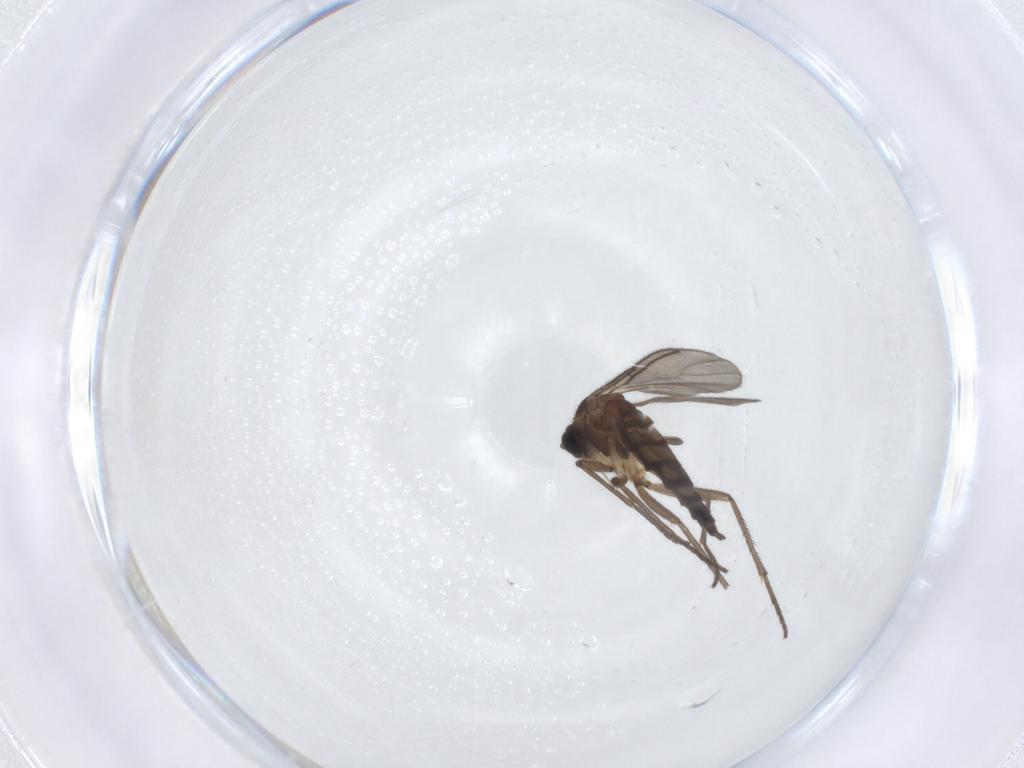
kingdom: Animalia
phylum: Arthropoda
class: Insecta
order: Diptera
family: Sciaridae
